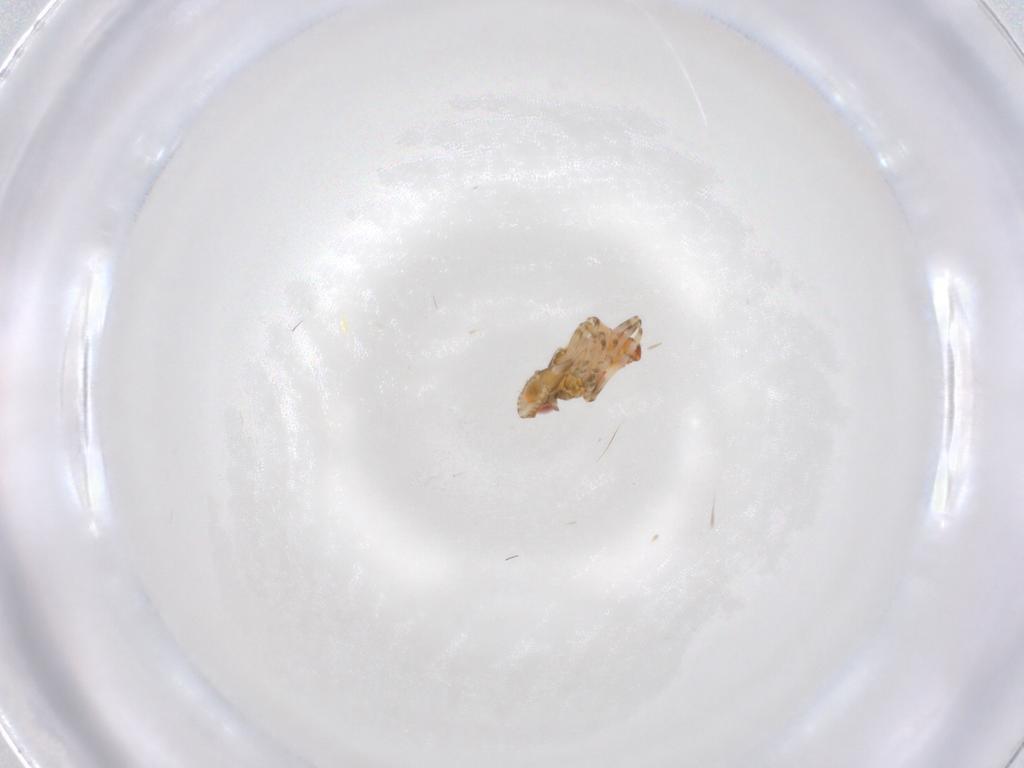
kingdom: Animalia
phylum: Arthropoda
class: Insecta
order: Hemiptera
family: Tropiduchidae
